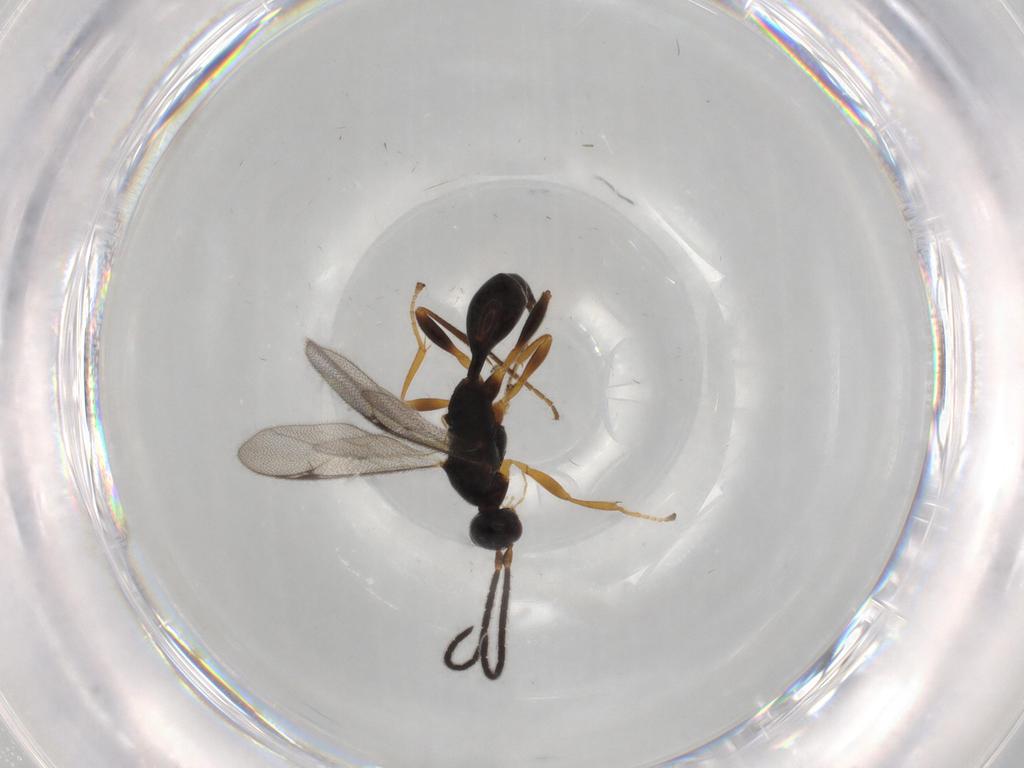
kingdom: Animalia
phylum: Arthropoda
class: Insecta
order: Hymenoptera
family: Proctotrupidae
